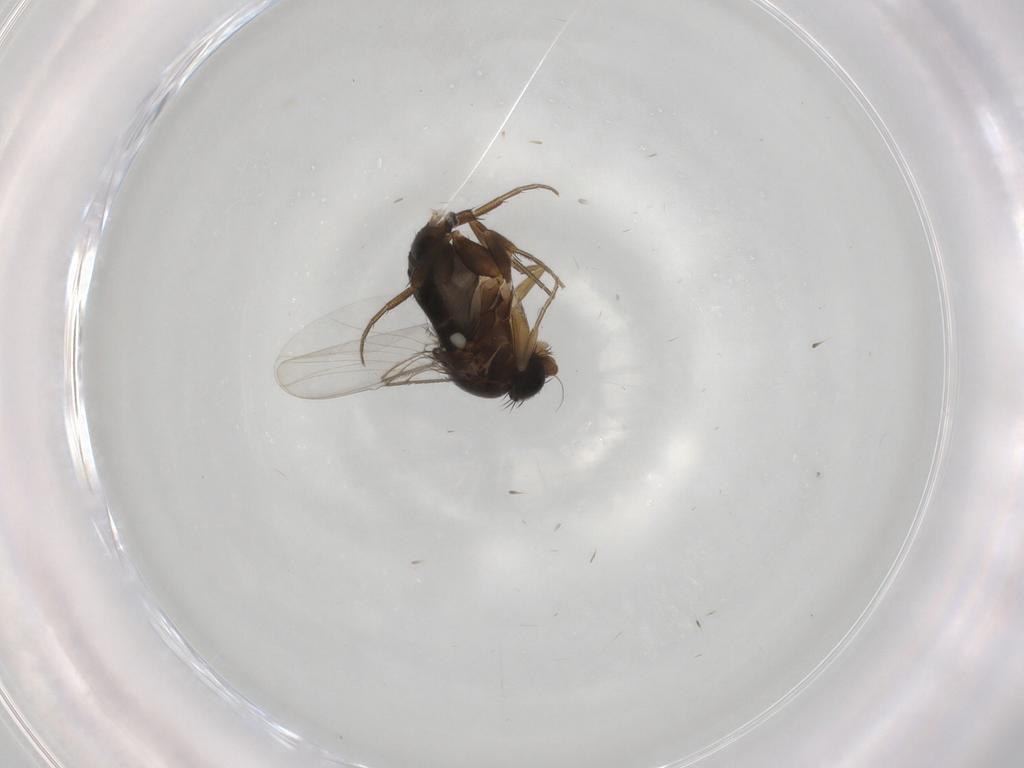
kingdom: Animalia
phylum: Arthropoda
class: Insecta
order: Diptera
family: Phoridae
